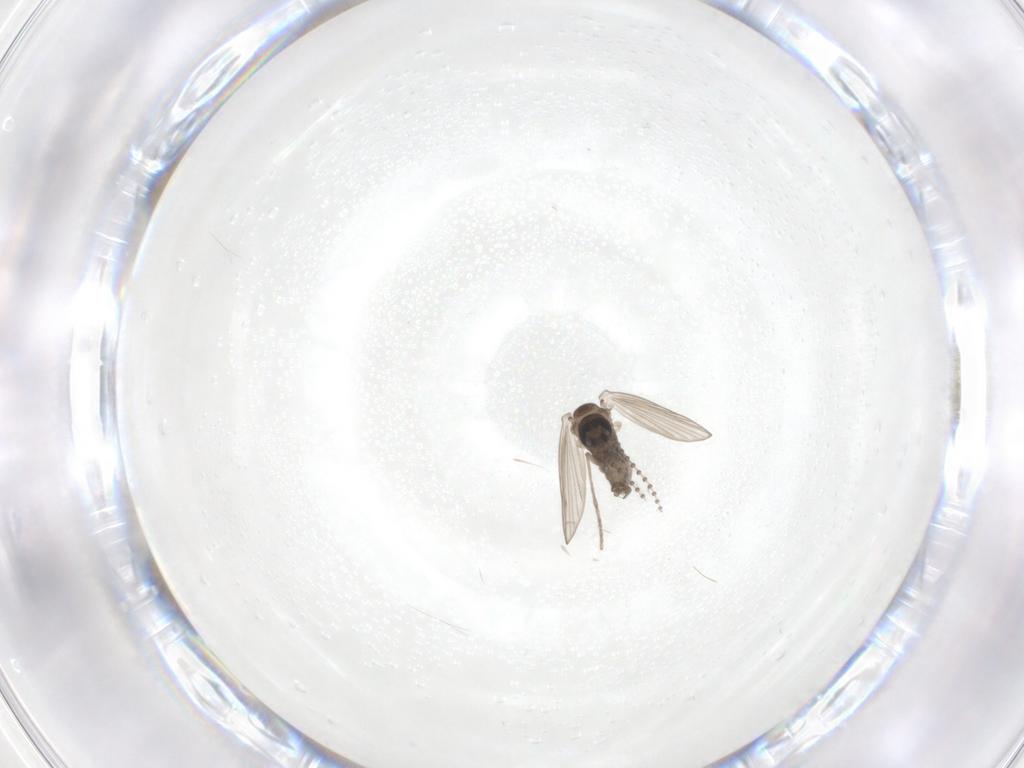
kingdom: Animalia
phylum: Arthropoda
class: Insecta
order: Diptera
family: Psychodidae
